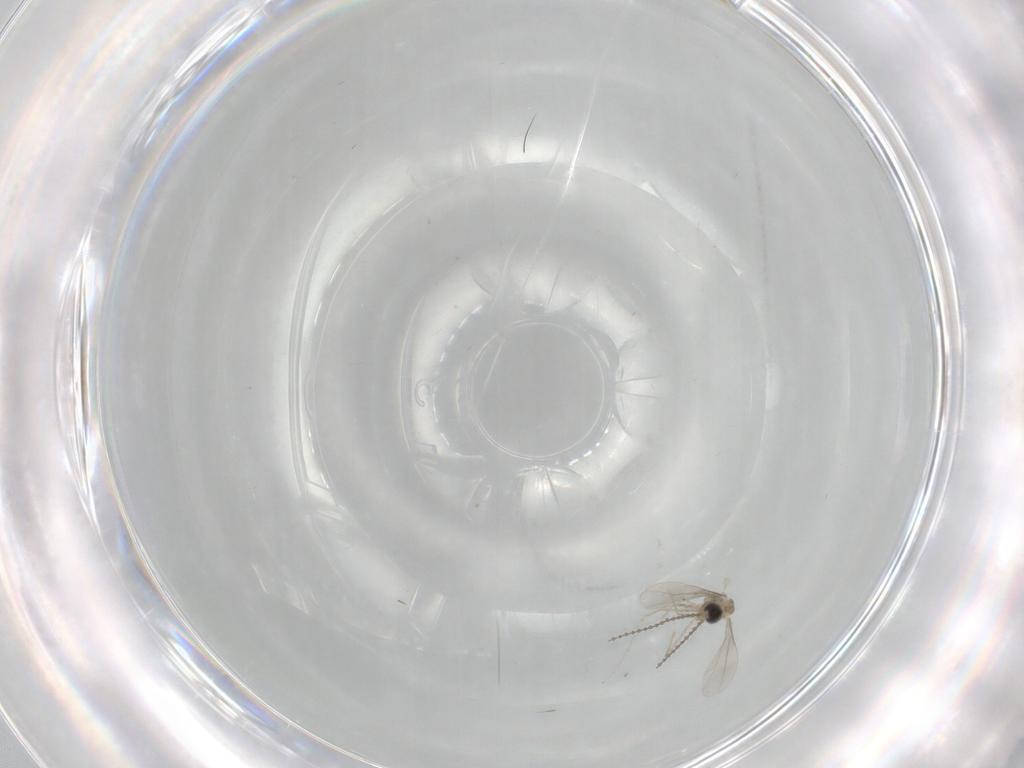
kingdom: Animalia
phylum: Arthropoda
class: Insecta
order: Diptera
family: Cecidomyiidae
